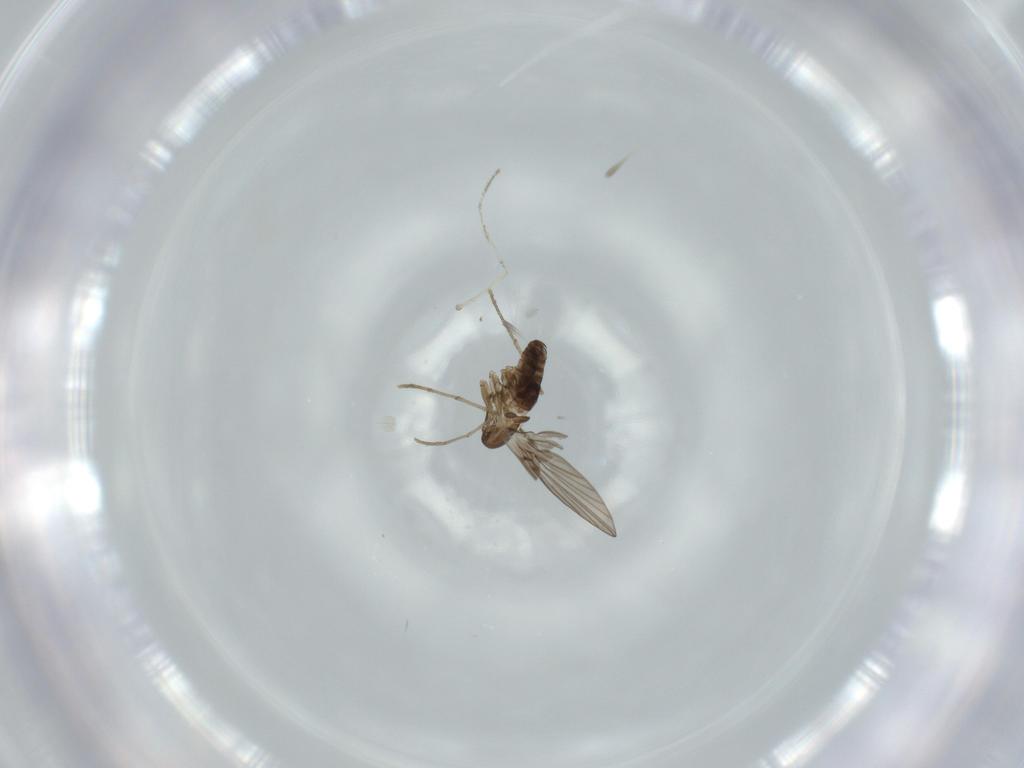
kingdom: Animalia
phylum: Arthropoda
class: Insecta
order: Diptera
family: Psychodidae
